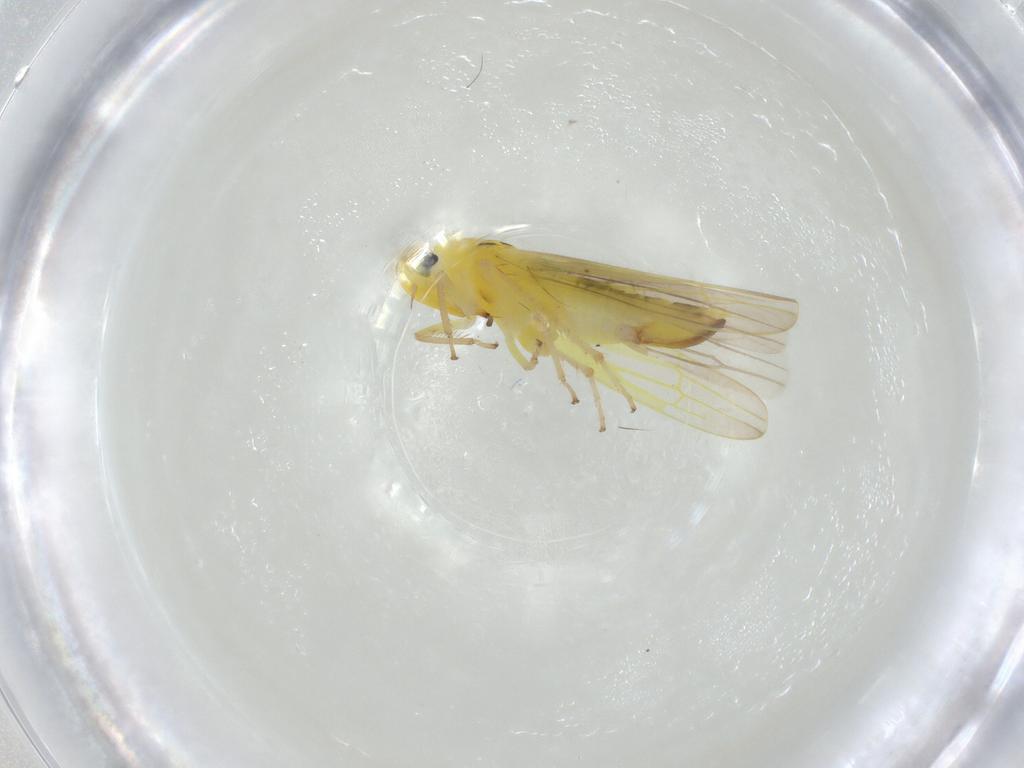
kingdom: Animalia
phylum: Arthropoda
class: Insecta
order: Hemiptera
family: Cicadellidae
